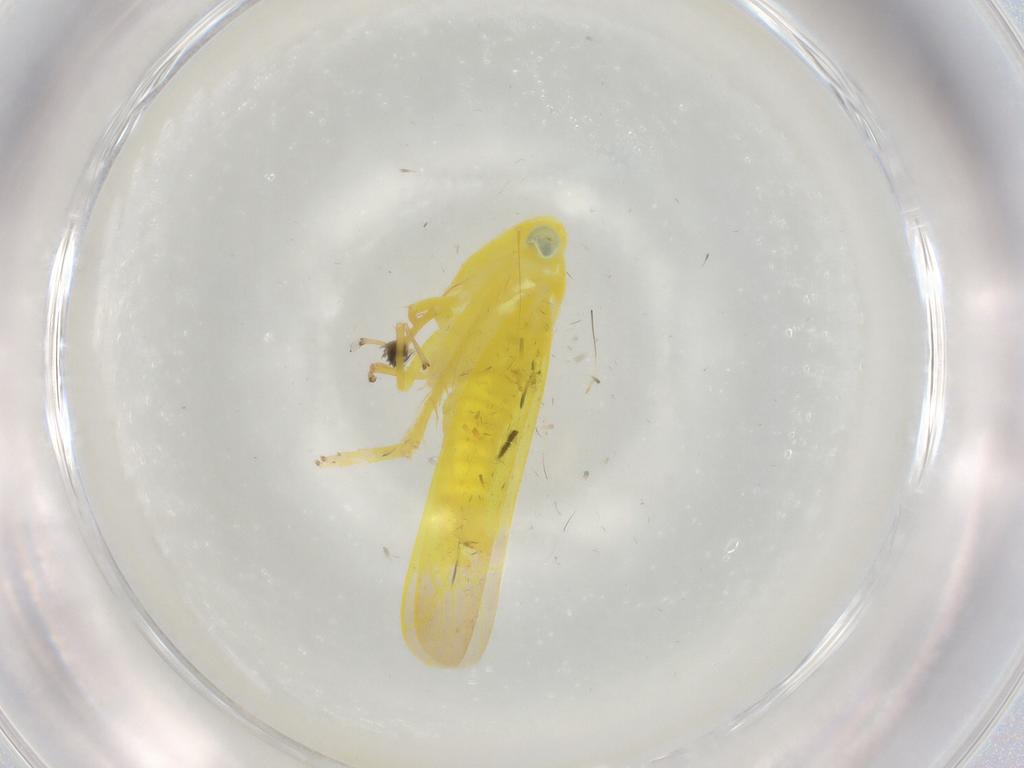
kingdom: Animalia
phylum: Arthropoda
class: Insecta
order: Hemiptera
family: Cicadellidae
